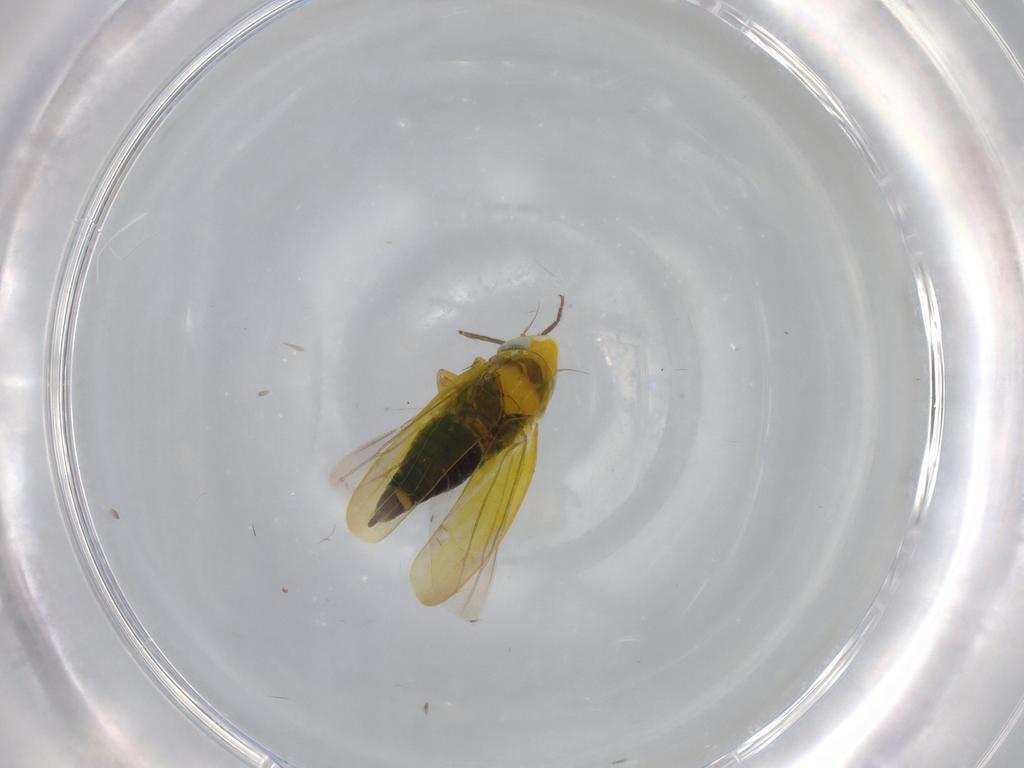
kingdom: Animalia
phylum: Arthropoda
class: Insecta
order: Hemiptera
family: Cicadellidae
